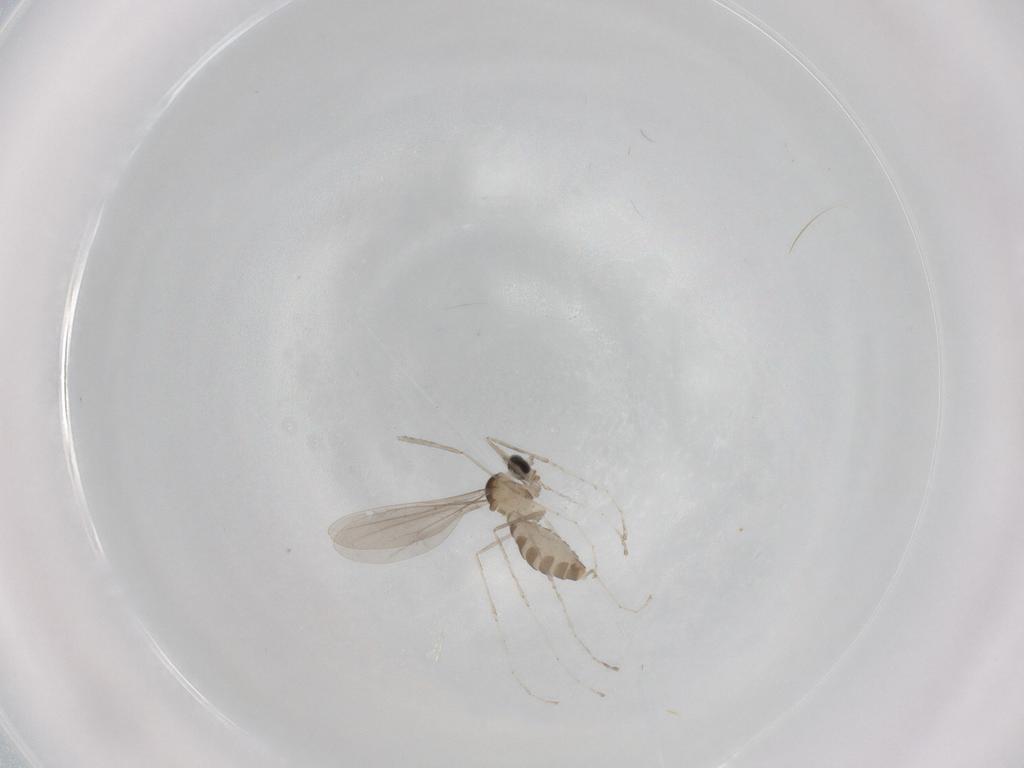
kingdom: Animalia
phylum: Arthropoda
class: Insecta
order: Diptera
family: Cecidomyiidae
